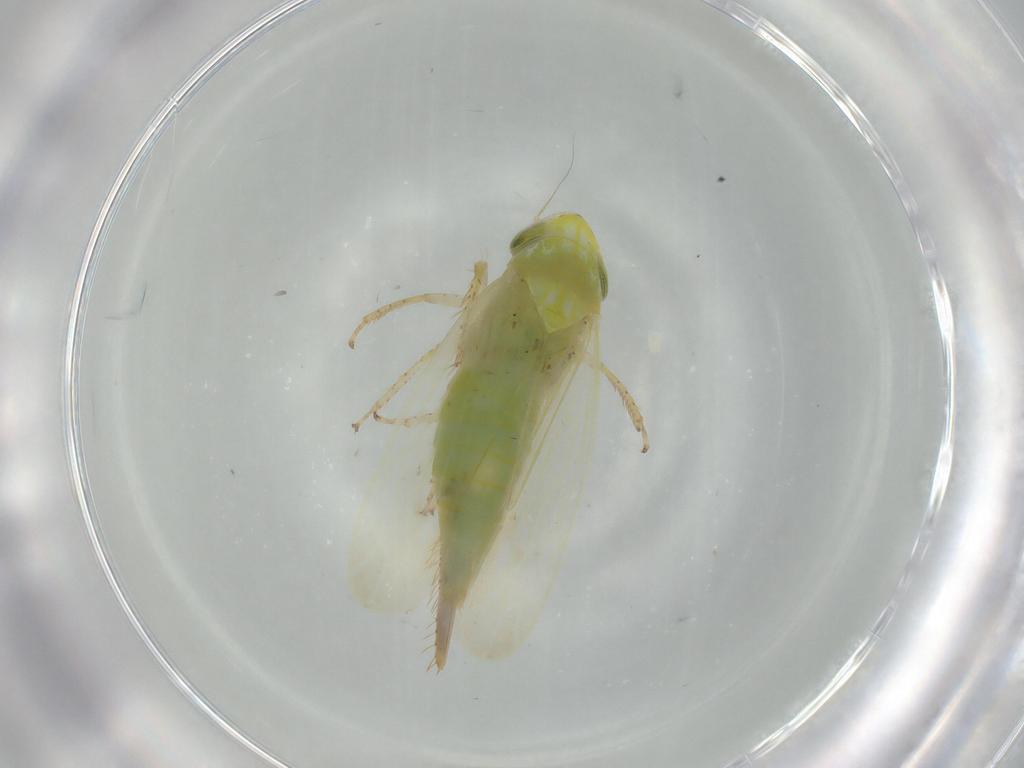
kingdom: Animalia
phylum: Arthropoda
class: Insecta
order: Hemiptera
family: Cicadellidae
